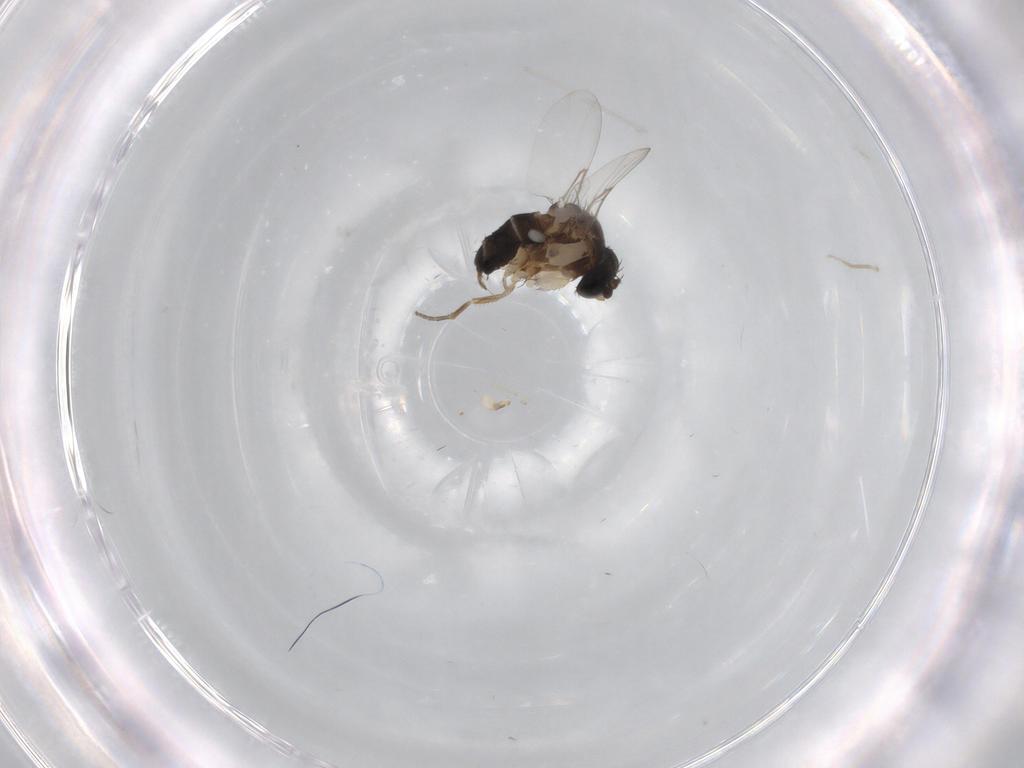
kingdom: Animalia
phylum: Arthropoda
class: Insecta
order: Diptera
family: Phoridae
